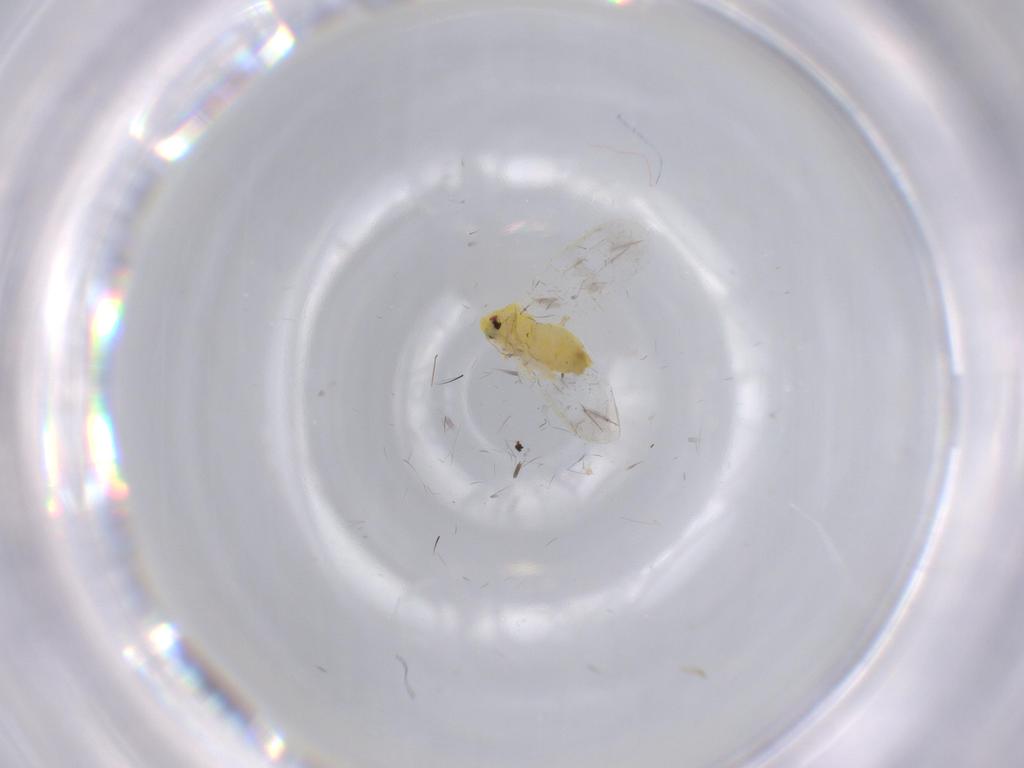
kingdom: Animalia
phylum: Arthropoda
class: Insecta
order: Hemiptera
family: Aleyrodidae
